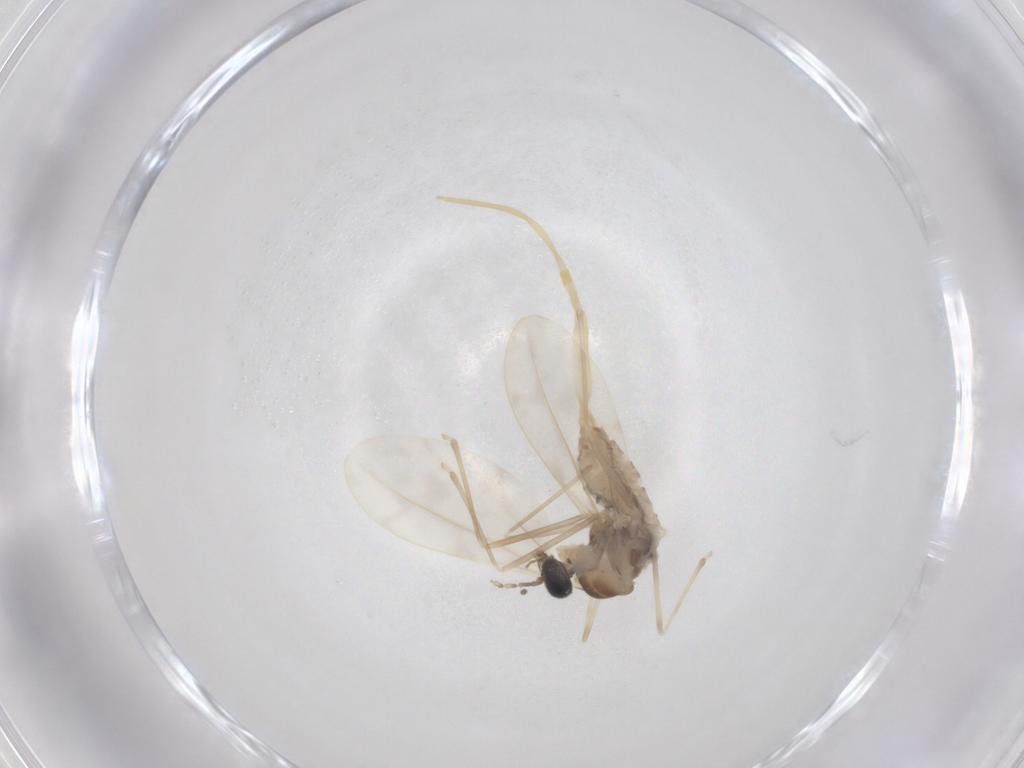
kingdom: Animalia
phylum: Arthropoda
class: Insecta
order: Diptera
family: Cecidomyiidae
